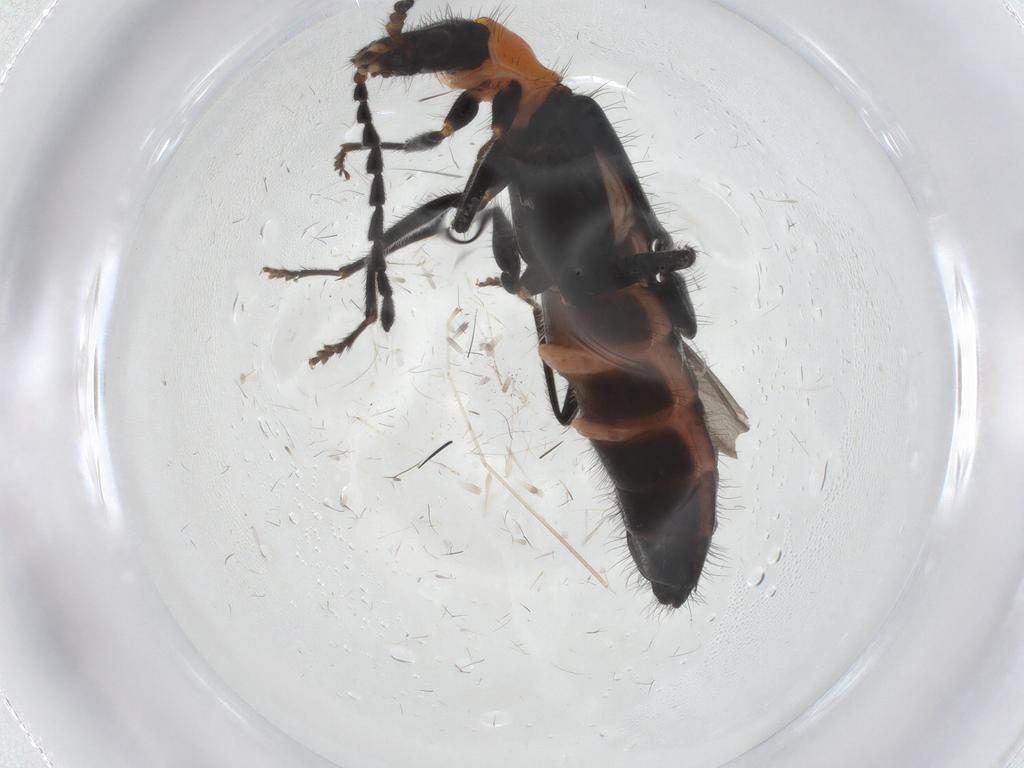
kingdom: Animalia
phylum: Arthropoda
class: Insecta
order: Coleoptera
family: Melyridae
